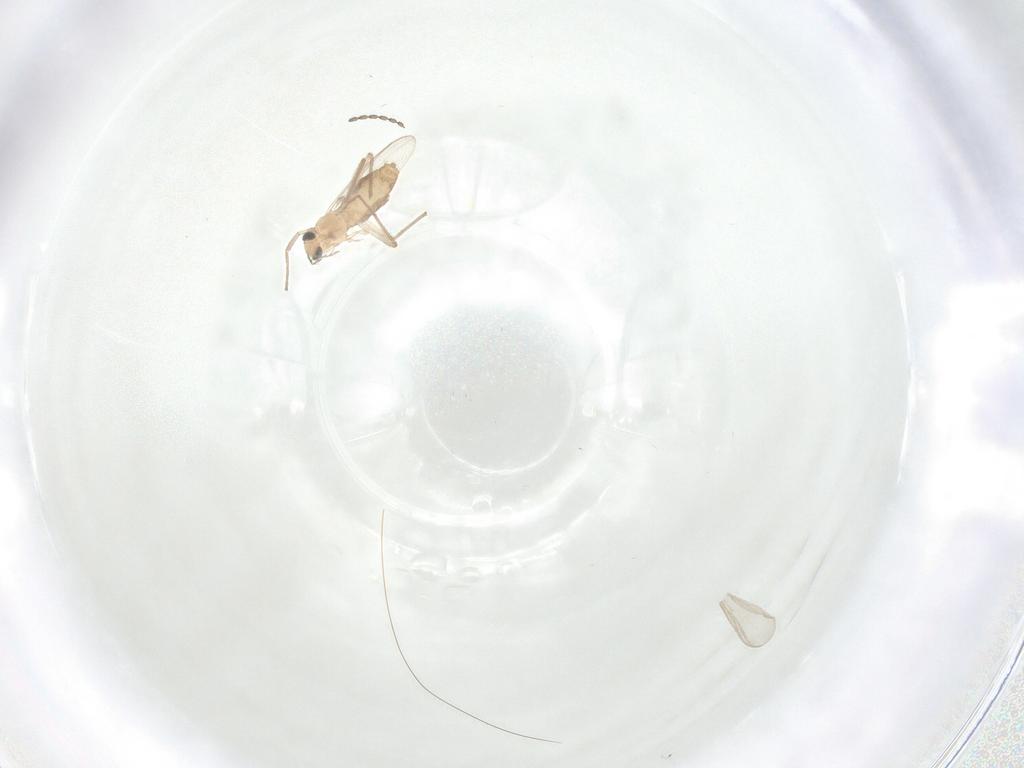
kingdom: Animalia
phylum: Arthropoda
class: Insecta
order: Diptera
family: Chironomidae
